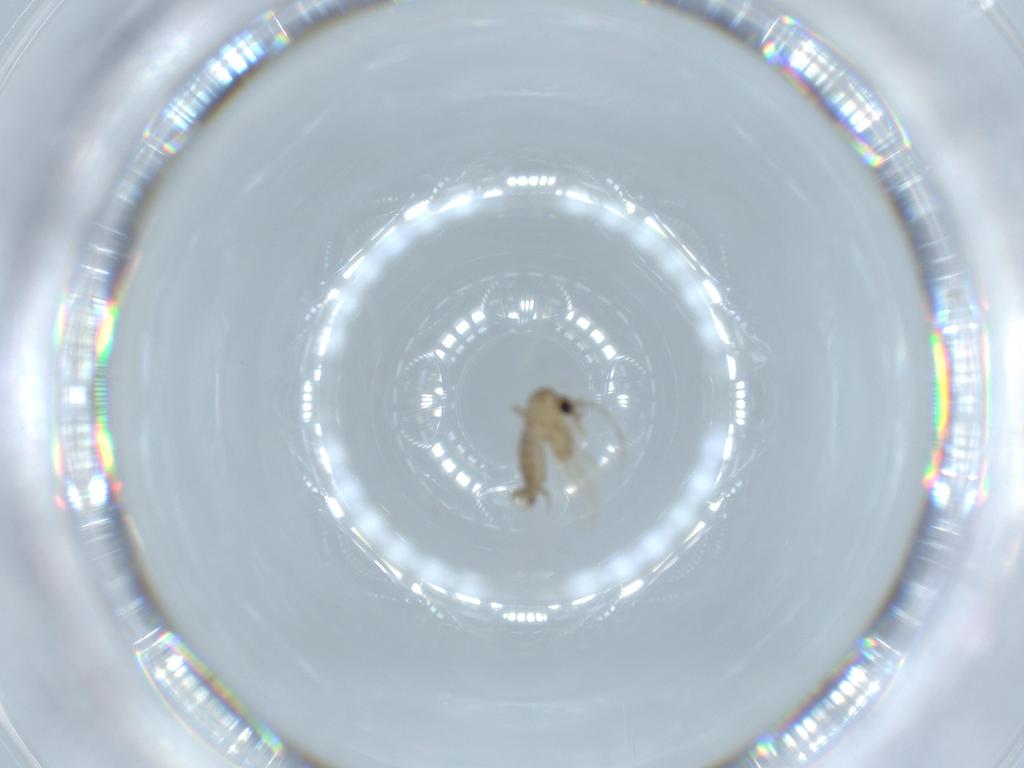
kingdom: Animalia
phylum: Arthropoda
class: Insecta
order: Diptera
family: Psychodidae
